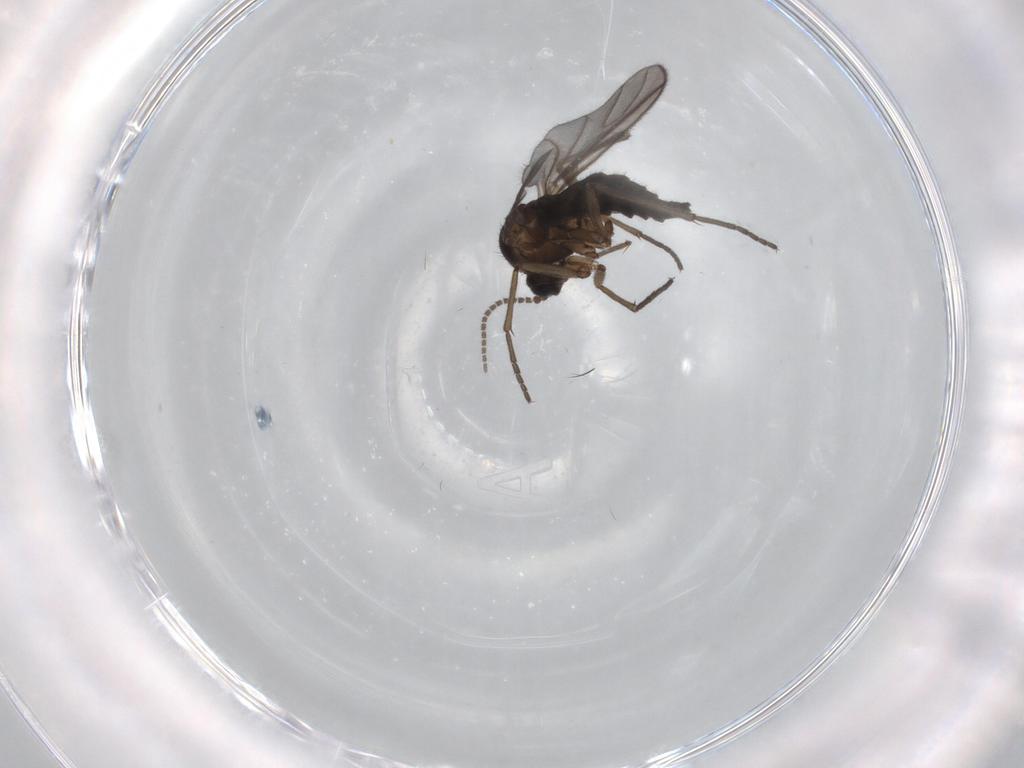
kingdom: Animalia
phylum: Arthropoda
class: Insecta
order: Diptera
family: Sciaridae
